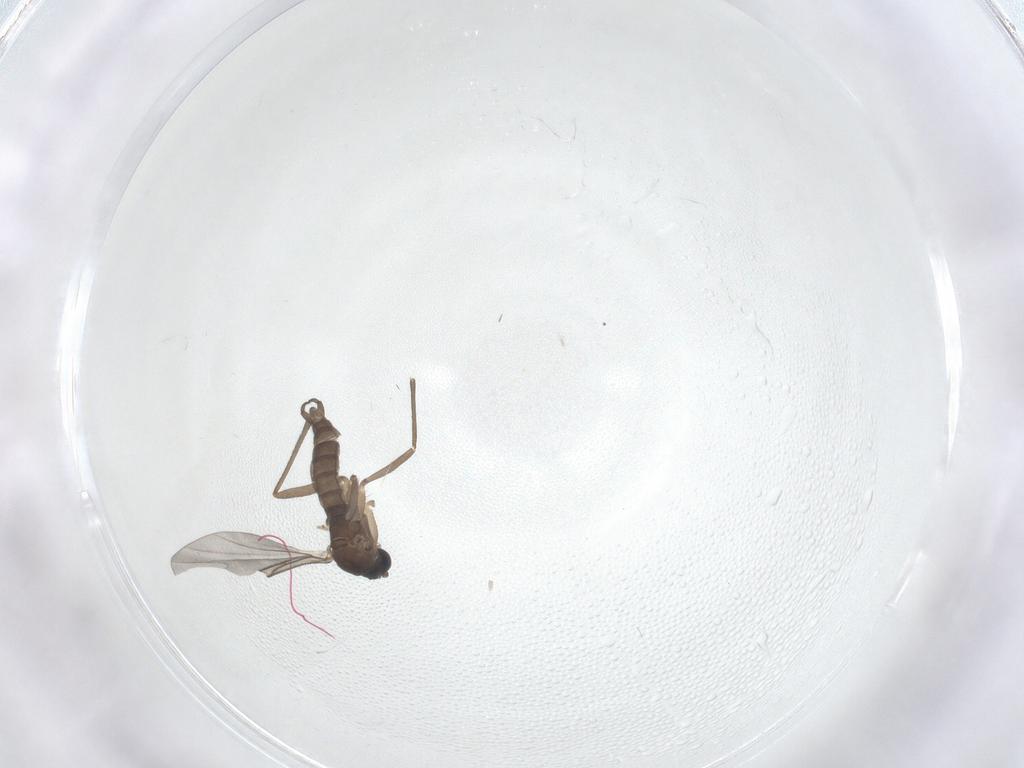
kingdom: Animalia
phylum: Arthropoda
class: Insecta
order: Diptera
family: Sciaridae
